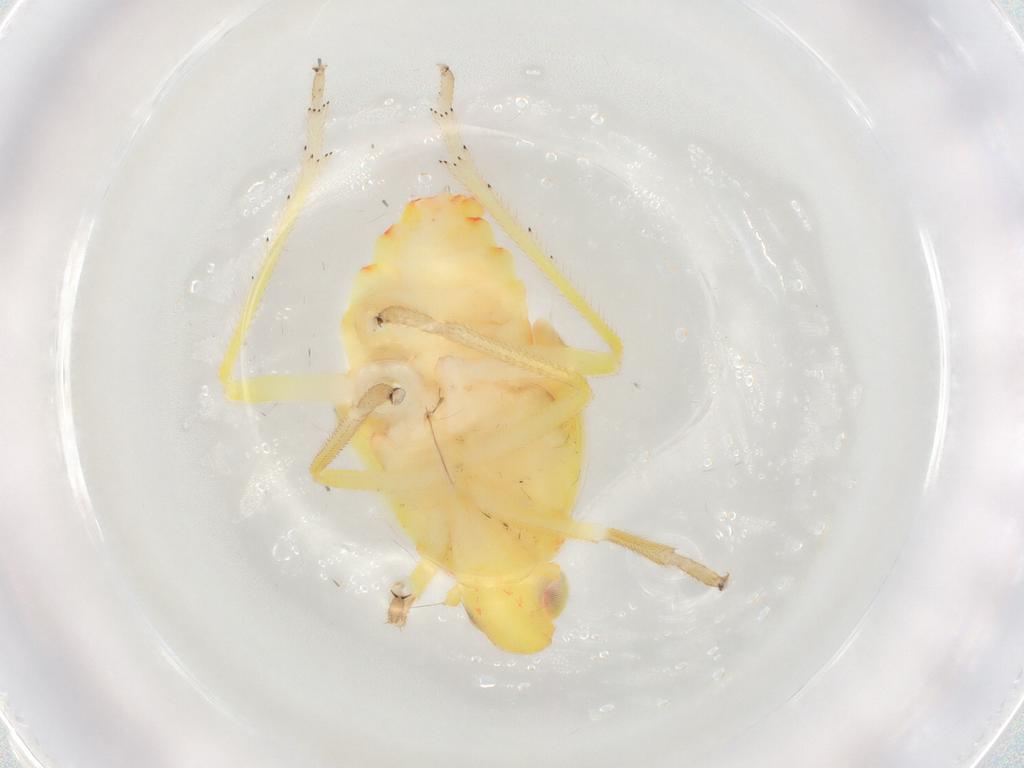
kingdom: Animalia
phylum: Arthropoda
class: Insecta
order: Hemiptera
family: Tropiduchidae
